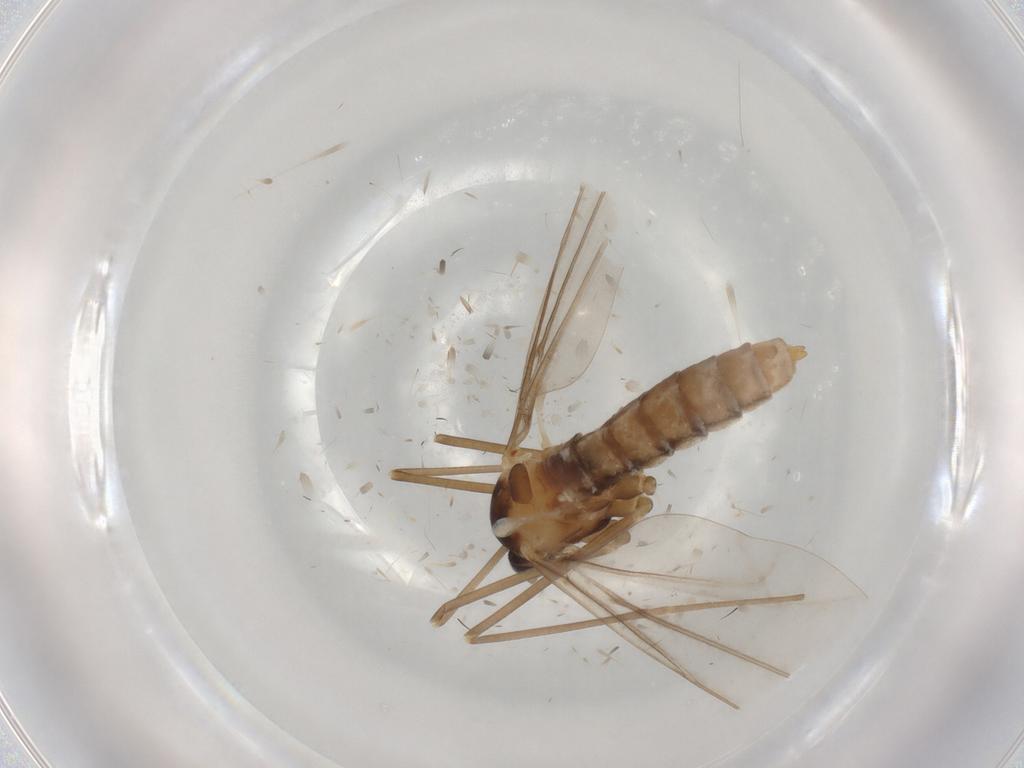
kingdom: Animalia
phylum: Arthropoda
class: Insecta
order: Diptera
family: Cecidomyiidae
